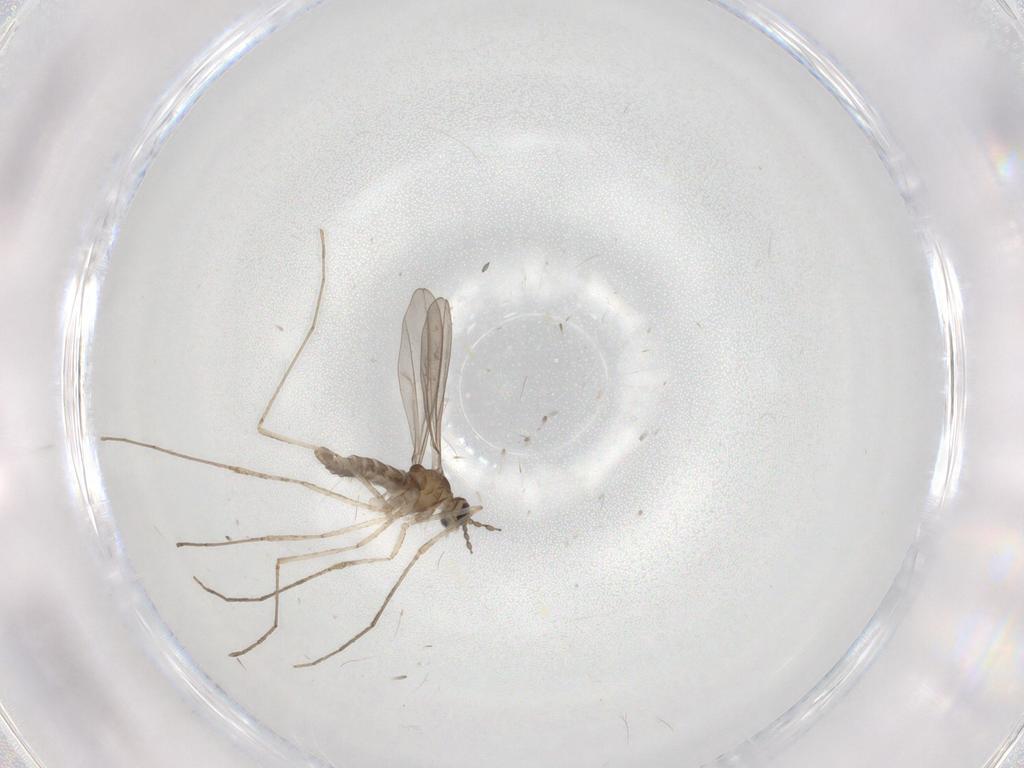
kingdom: Animalia
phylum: Arthropoda
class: Insecta
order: Diptera
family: Cecidomyiidae
